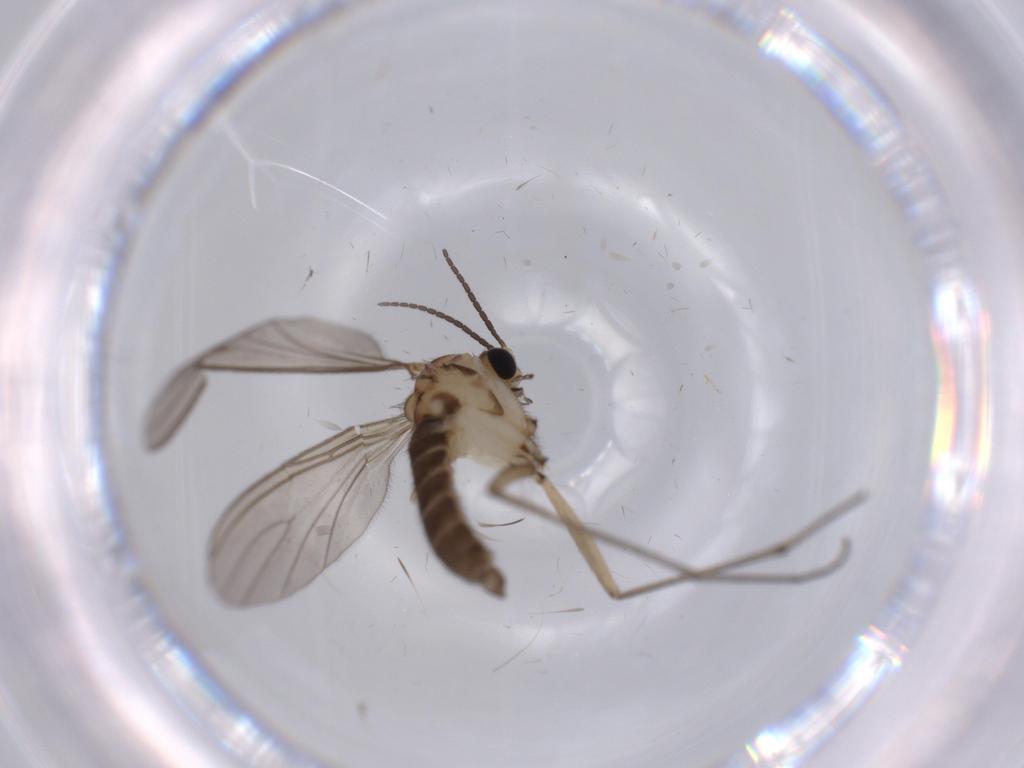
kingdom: Animalia
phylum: Arthropoda
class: Insecta
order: Diptera
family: Sciaridae
